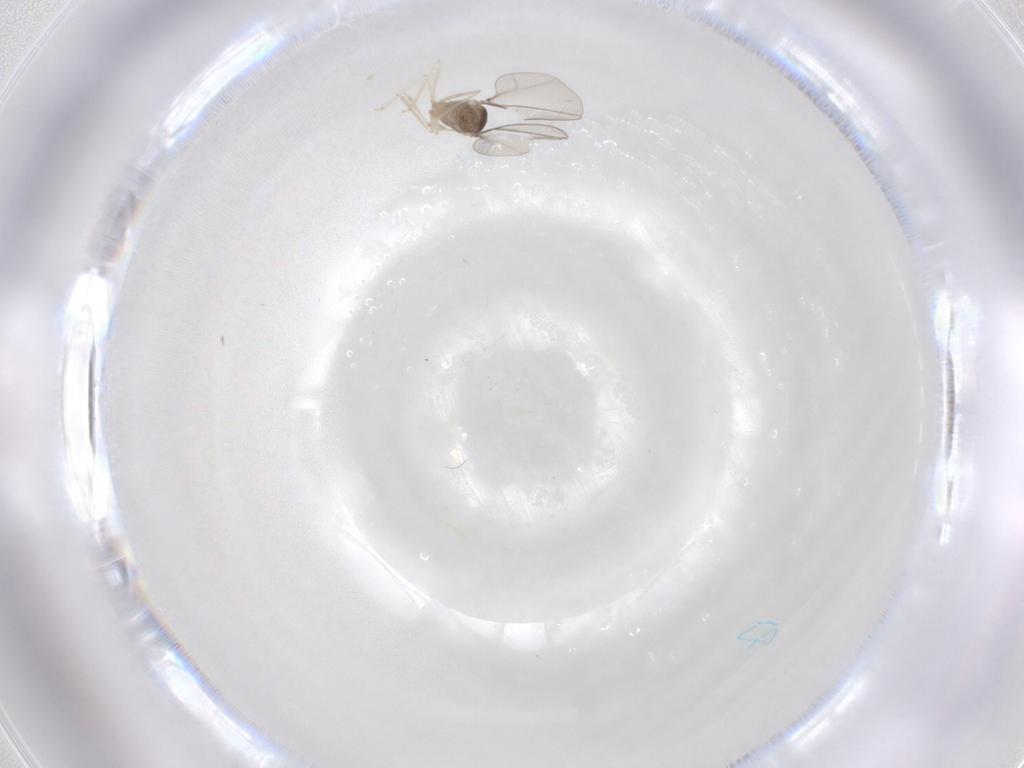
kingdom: Animalia
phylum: Arthropoda
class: Insecta
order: Diptera
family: Cecidomyiidae
